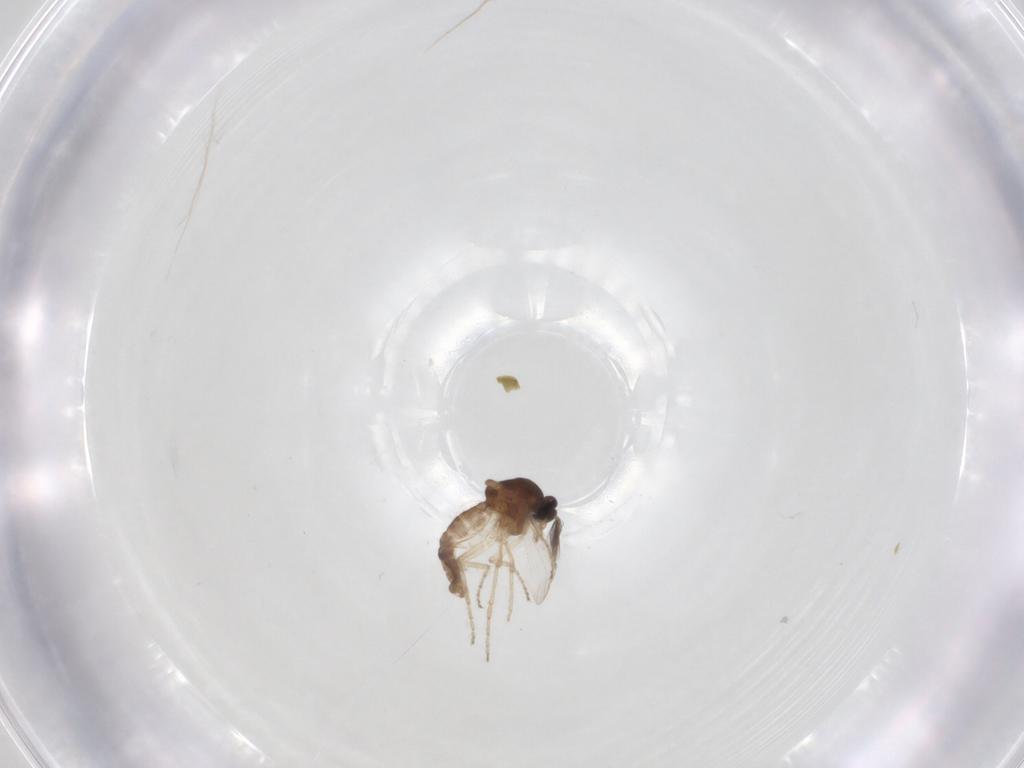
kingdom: Animalia
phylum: Arthropoda
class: Insecta
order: Diptera
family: Ceratopogonidae
